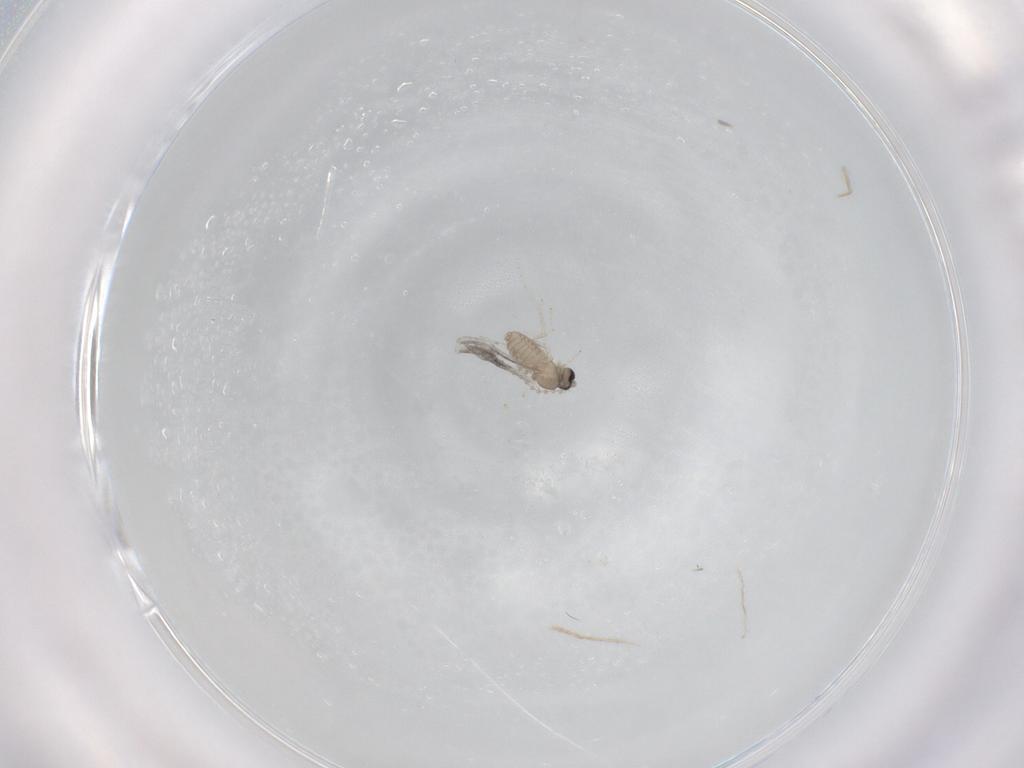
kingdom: Animalia
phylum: Arthropoda
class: Insecta
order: Diptera
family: Cecidomyiidae
